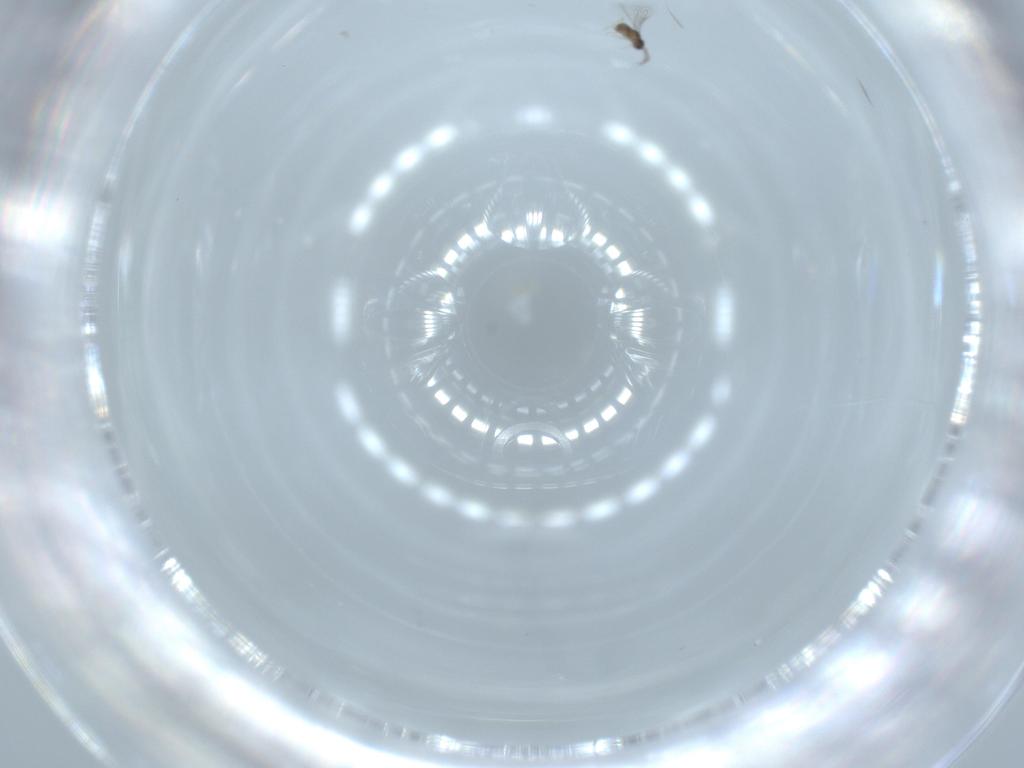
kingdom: Animalia
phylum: Arthropoda
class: Insecta
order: Hymenoptera
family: Mymaridae
